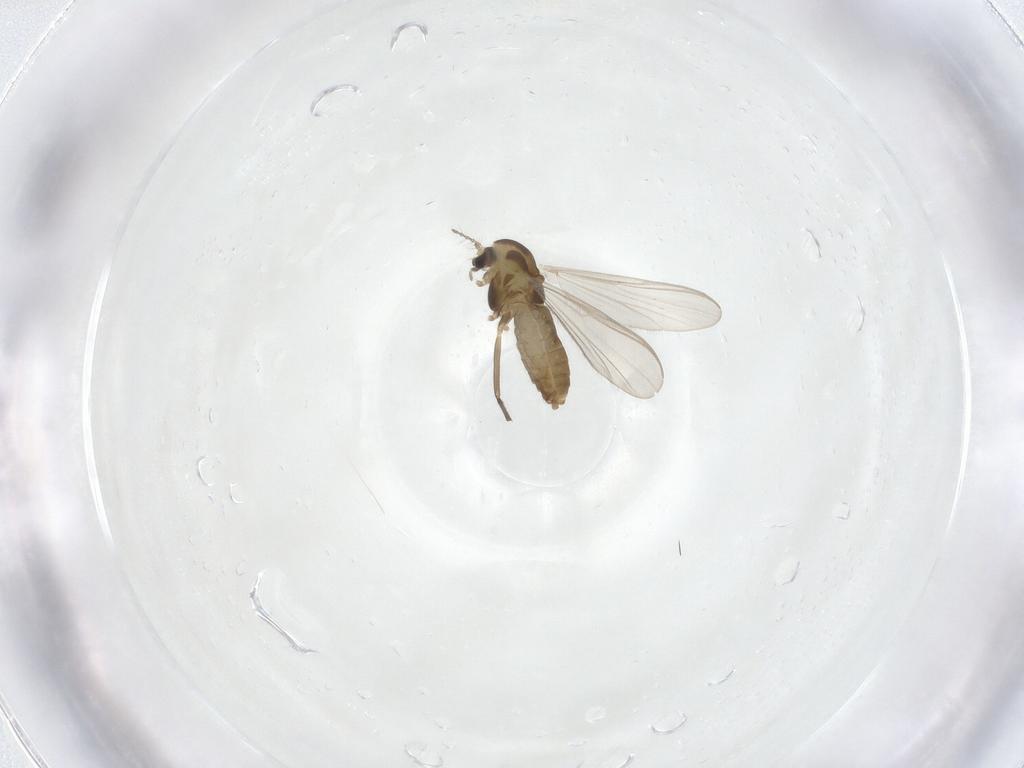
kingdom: Animalia
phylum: Arthropoda
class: Insecta
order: Diptera
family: Chironomidae
